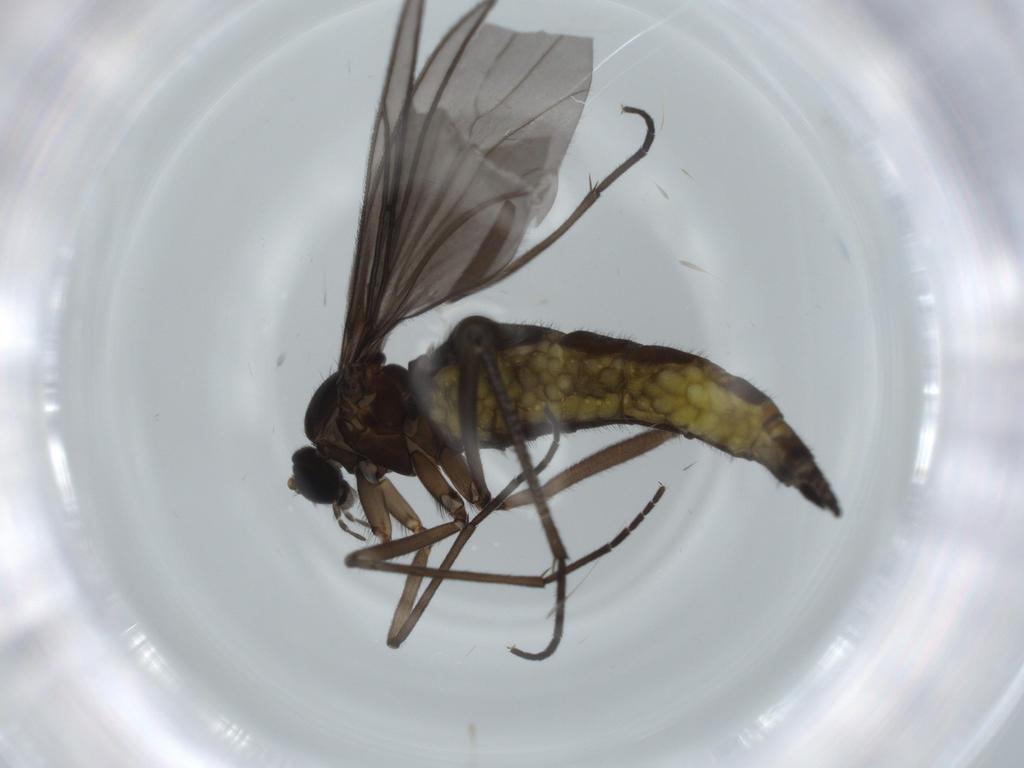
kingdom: Animalia
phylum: Arthropoda
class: Insecta
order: Diptera
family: Sciaridae
